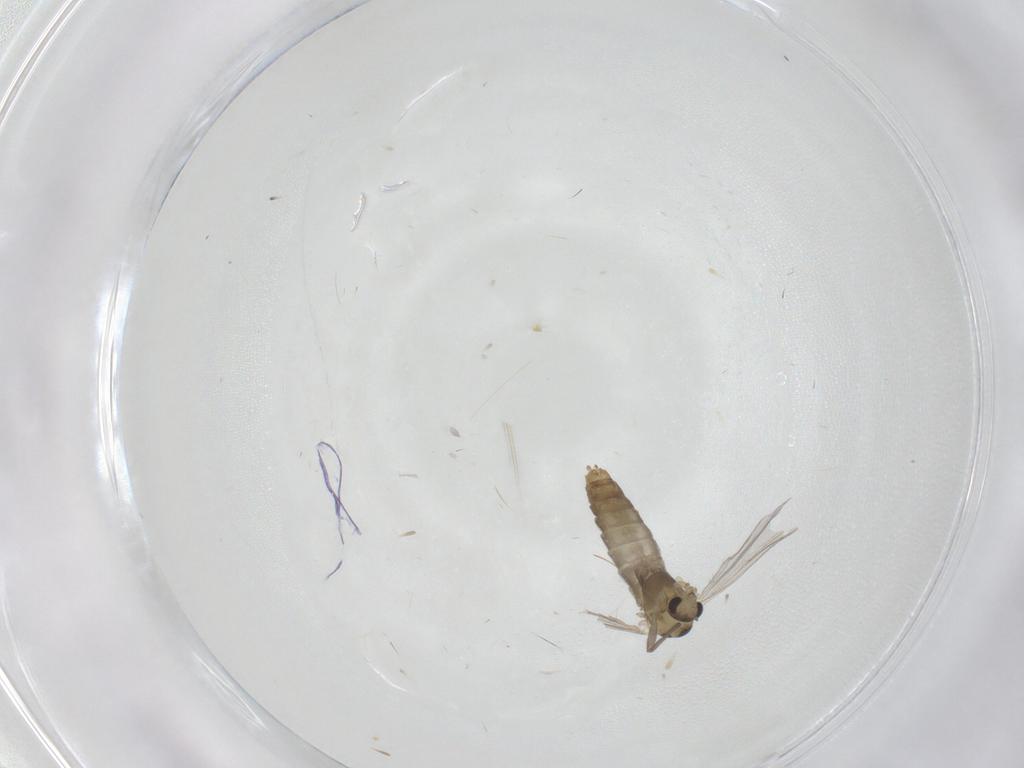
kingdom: Animalia
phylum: Arthropoda
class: Insecta
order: Diptera
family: Chironomidae
